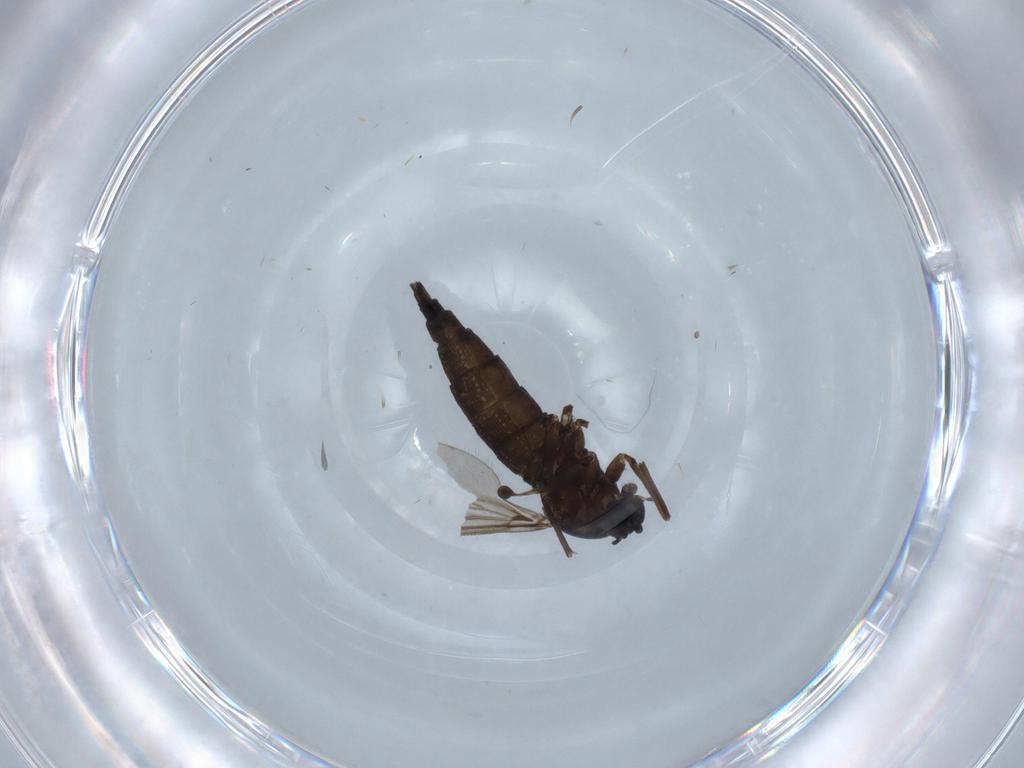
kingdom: Animalia
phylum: Arthropoda
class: Insecta
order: Diptera
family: Sciaridae
